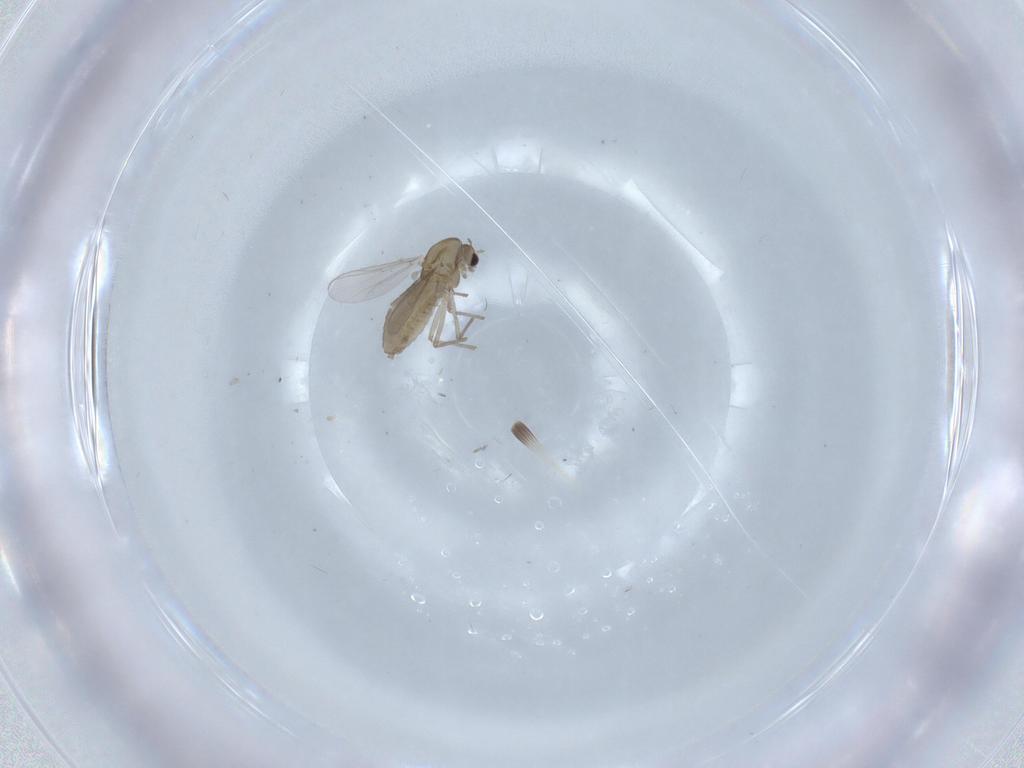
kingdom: Animalia
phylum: Arthropoda
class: Insecta
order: Diptera
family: Chironomidae
